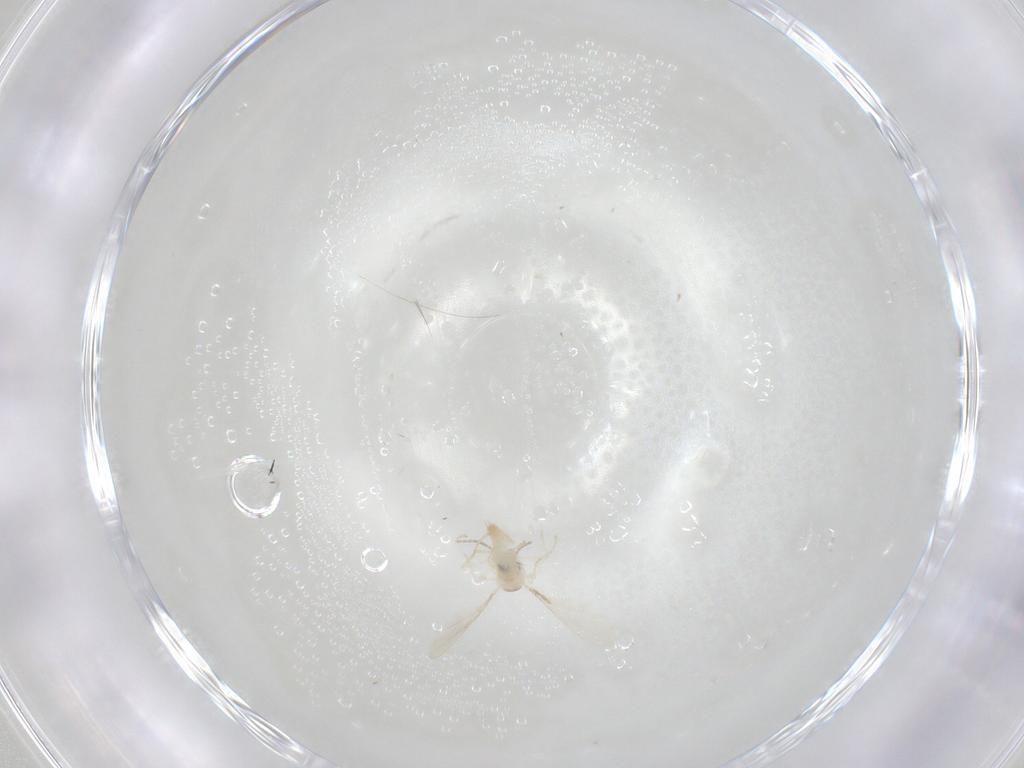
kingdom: Animalia
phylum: Arthropoda
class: Insecta
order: Diptera
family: Cecidomyiidae
